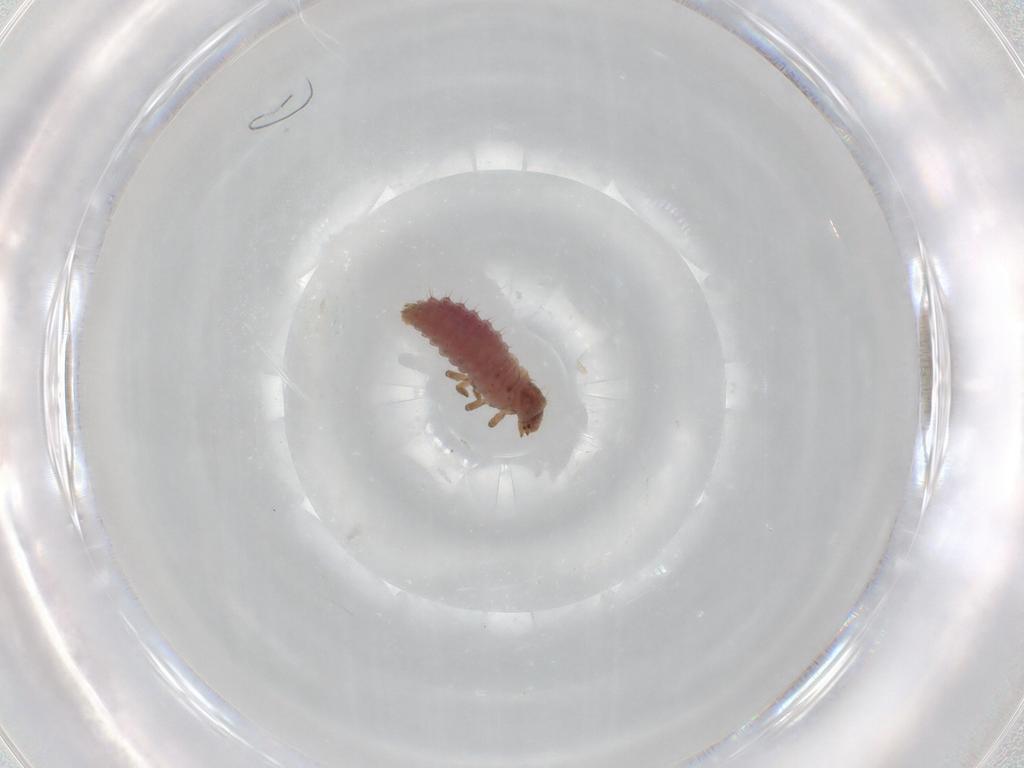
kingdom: Animalia
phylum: Arthropoda
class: Insecta
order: Coleoptera
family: Coccinellidae
